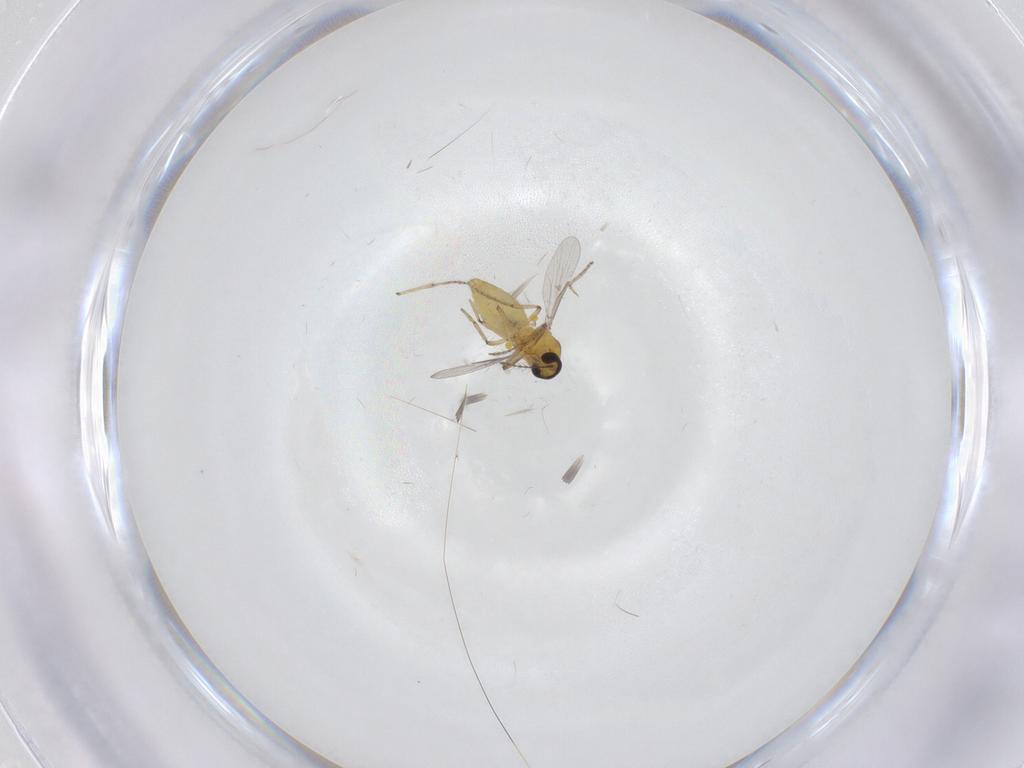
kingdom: Animalia
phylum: Arthropoda
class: Insecta
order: Diptera
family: Ceratopogonidae
